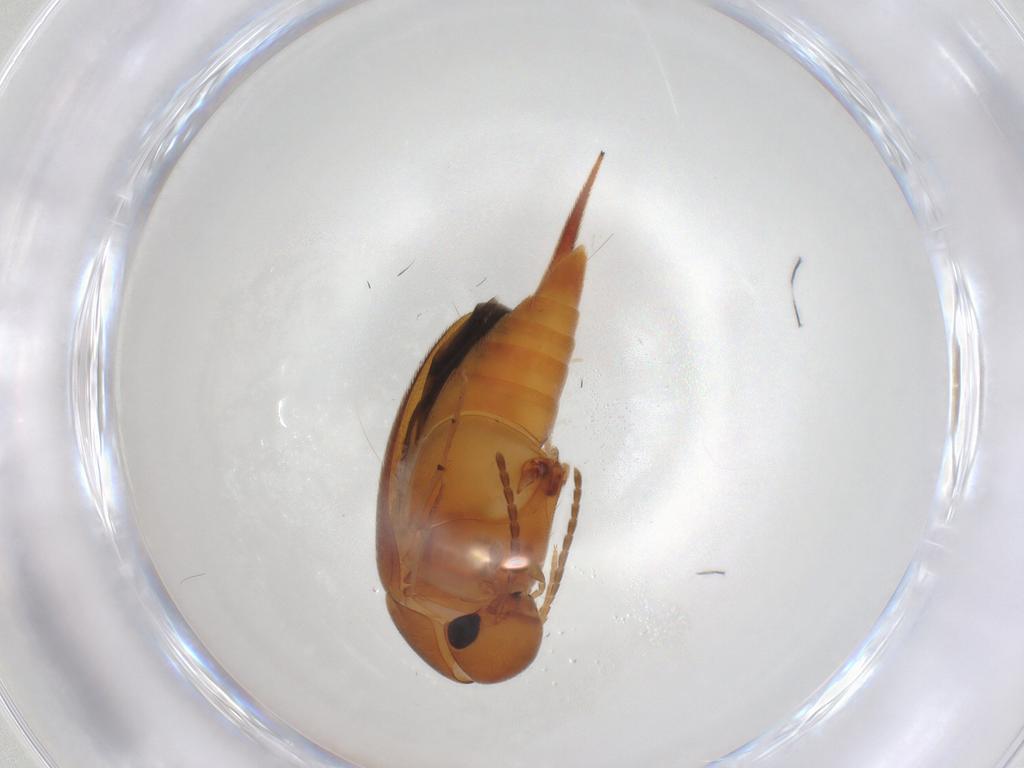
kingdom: Animalia
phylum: Arthropoda
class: Insecta
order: Coleoptera
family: Mordellidae
